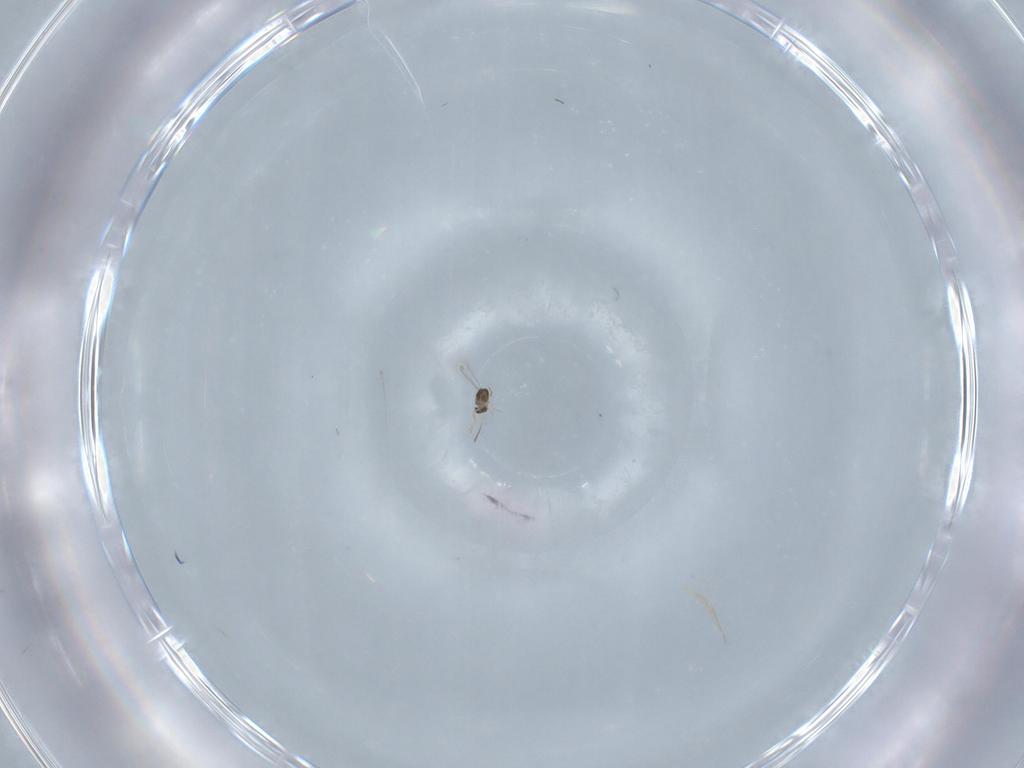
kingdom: Animalia
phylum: Arthropoda
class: Insecta
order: Hymenoptera
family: Mymaridae
